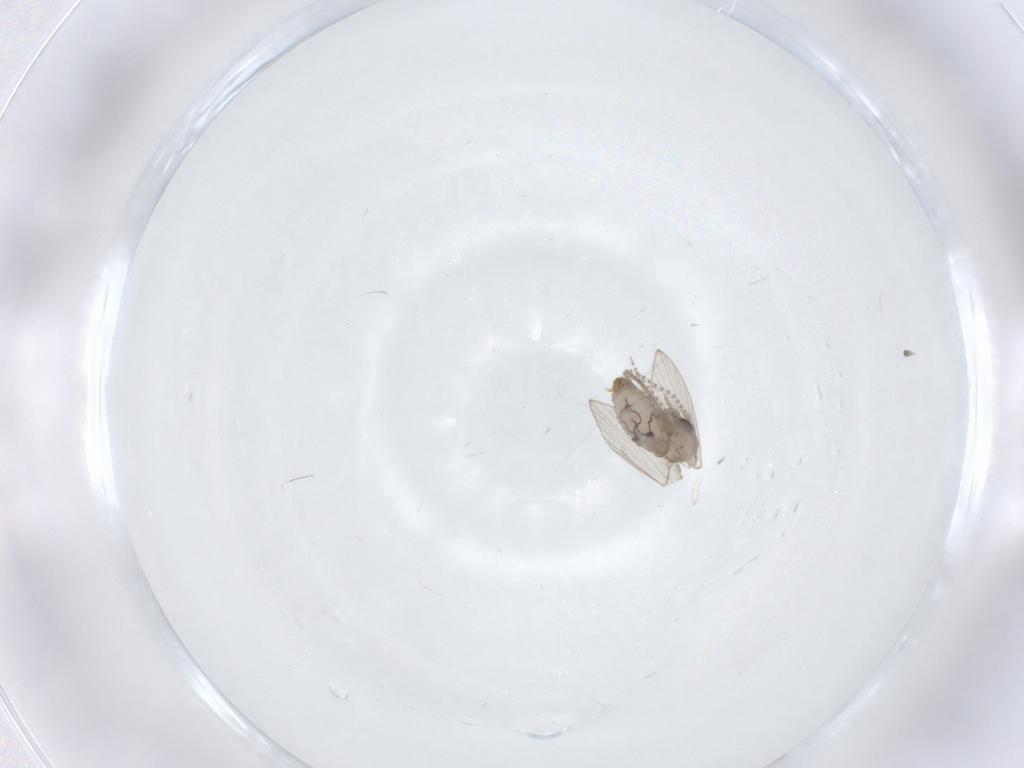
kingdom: Animalia
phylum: Arthropoda
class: Insecta
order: Diptera
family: Psychodidae
